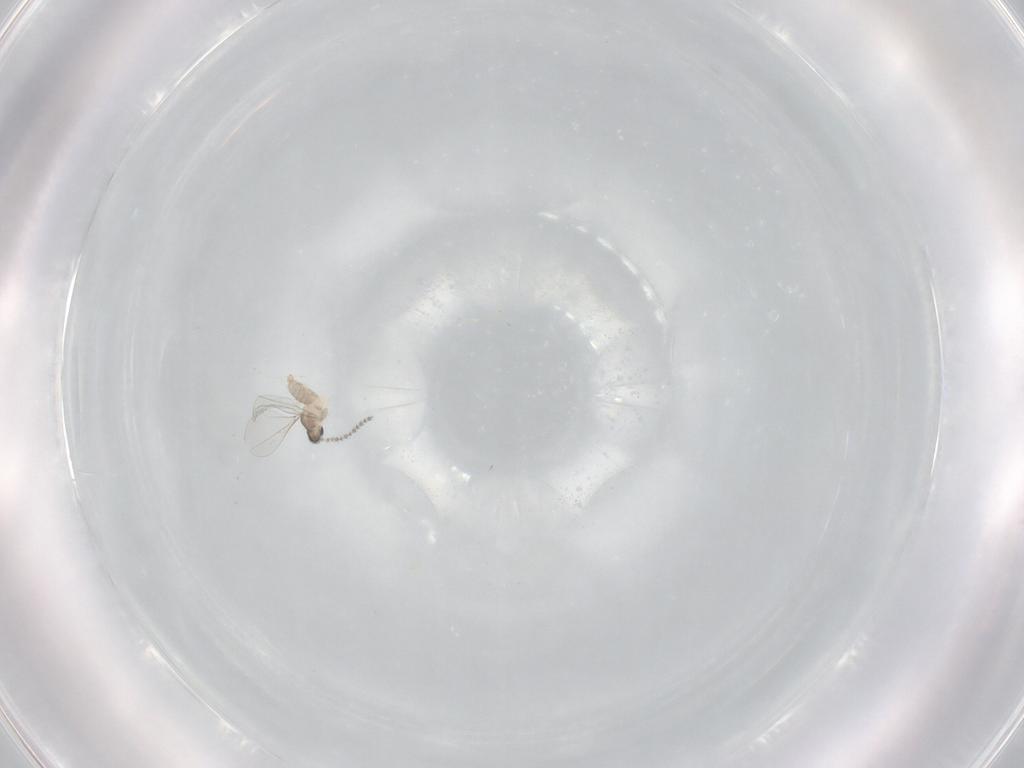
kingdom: Animalia
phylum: Arthropoda
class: Insecta
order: Diptera
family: Cecidomyiidae
